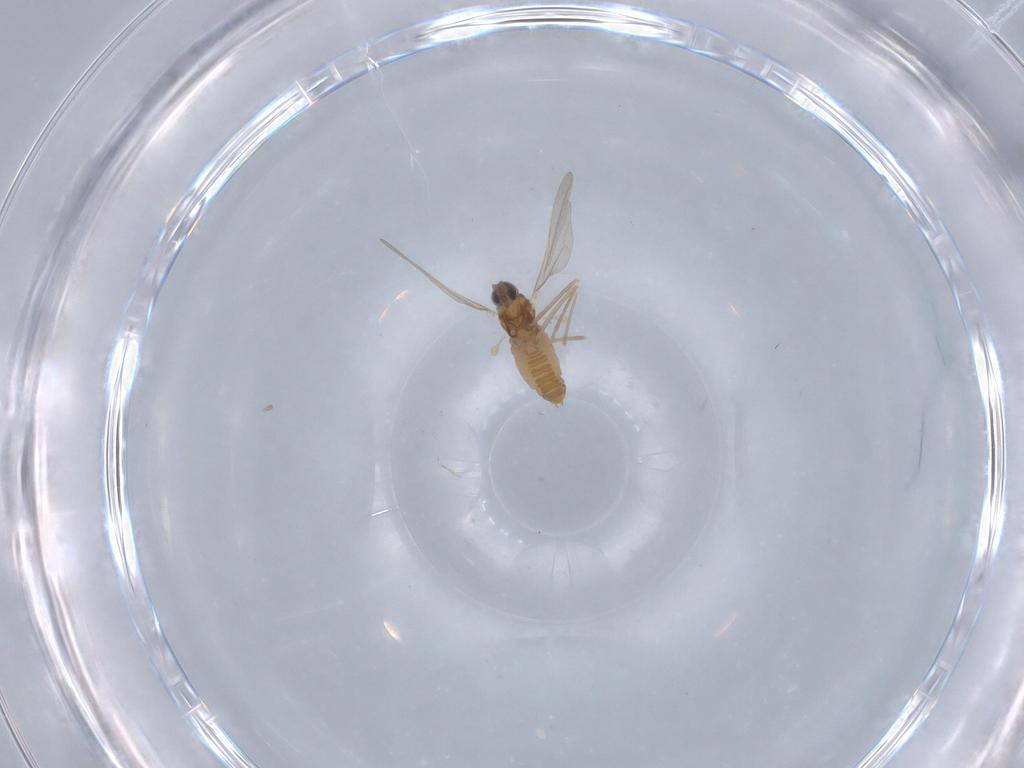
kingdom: Animalia
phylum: Arthropoda
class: Insecta
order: Diptera
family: Cecidomyiidae
